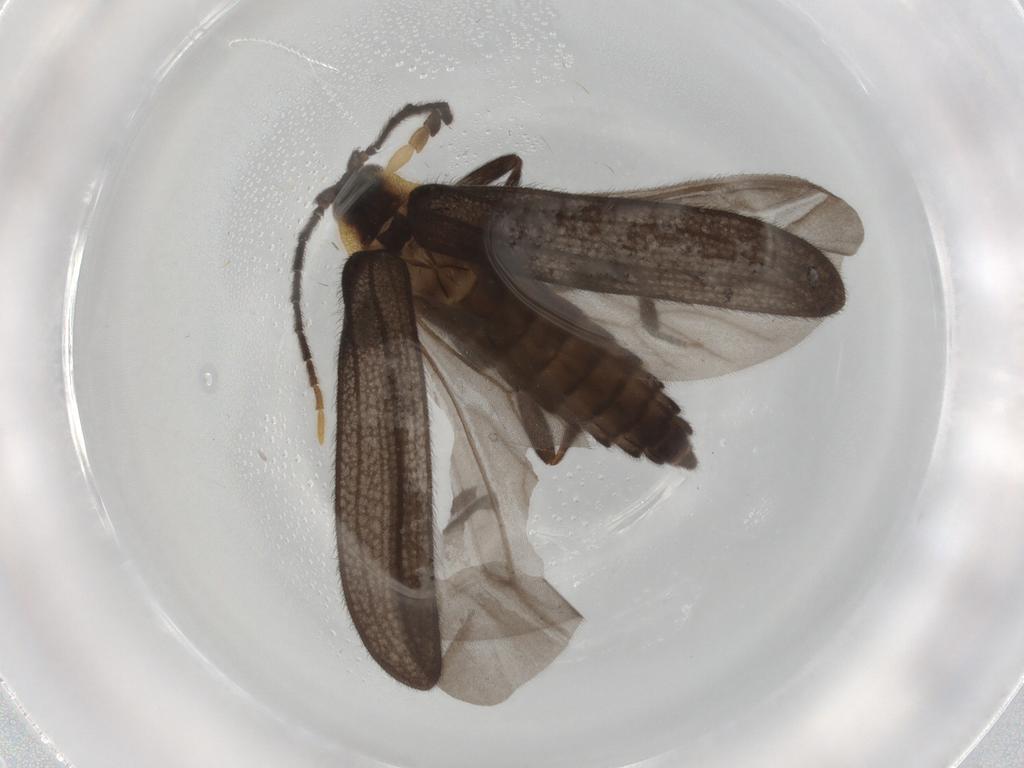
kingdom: Animalia
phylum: Arthropoda
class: Insecta
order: Coleoptera
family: Lycidae
